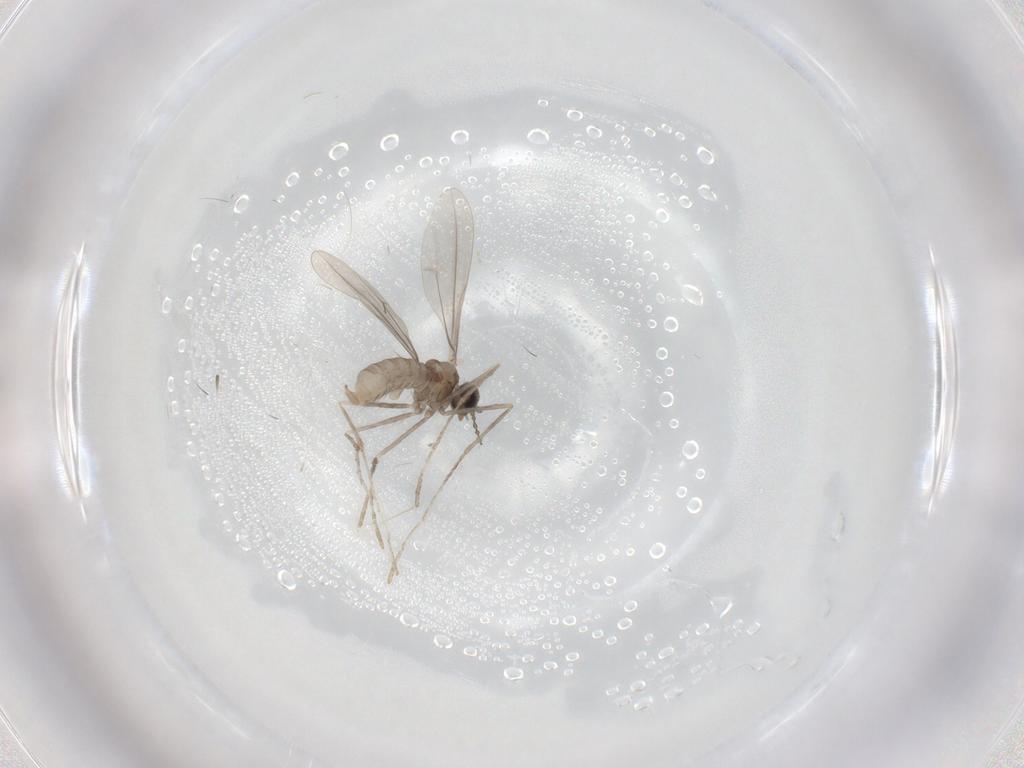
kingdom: Animalia
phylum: Arthropoda
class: Insecta
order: Diptera
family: Cecidomyiidae
